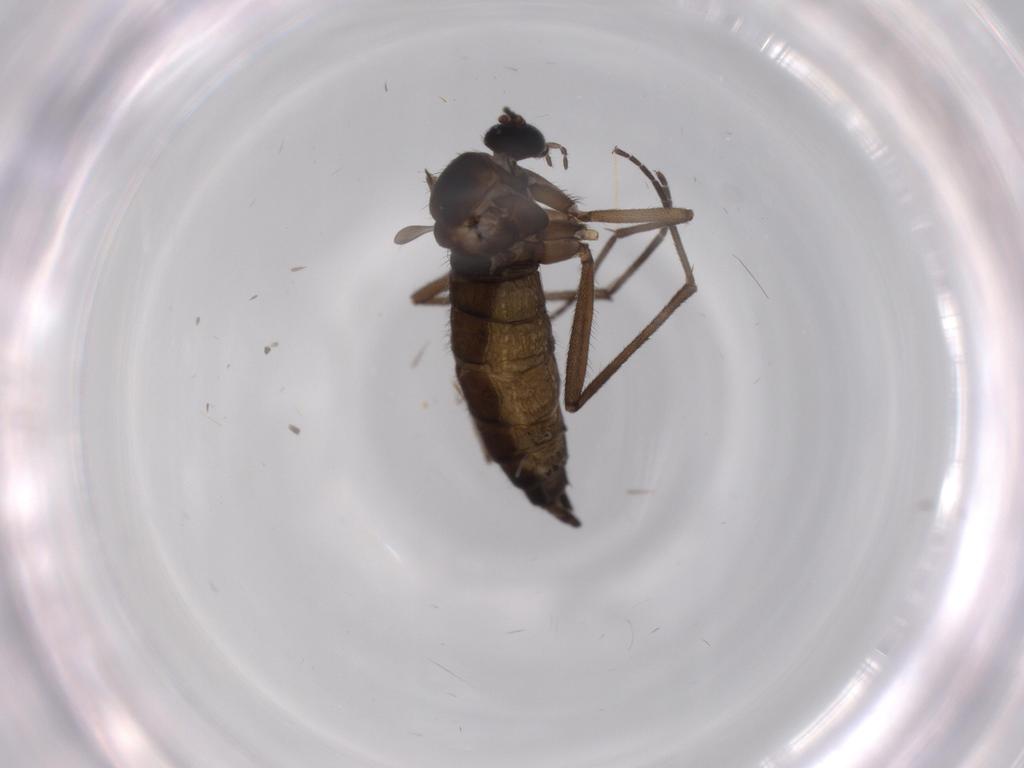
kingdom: Animalia
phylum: Arthropoda
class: Insecta
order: Diptera
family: Sciaridae
